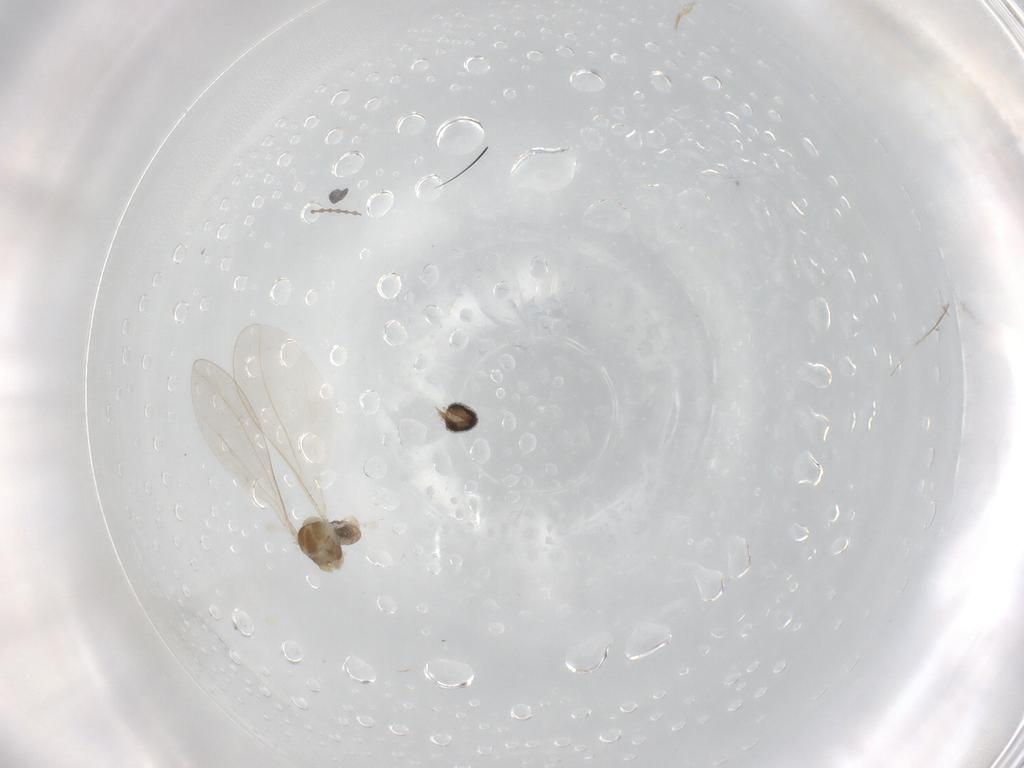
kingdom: Animalia
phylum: Arthropoda
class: Insecta
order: Diptera
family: Cecidomyiidae
